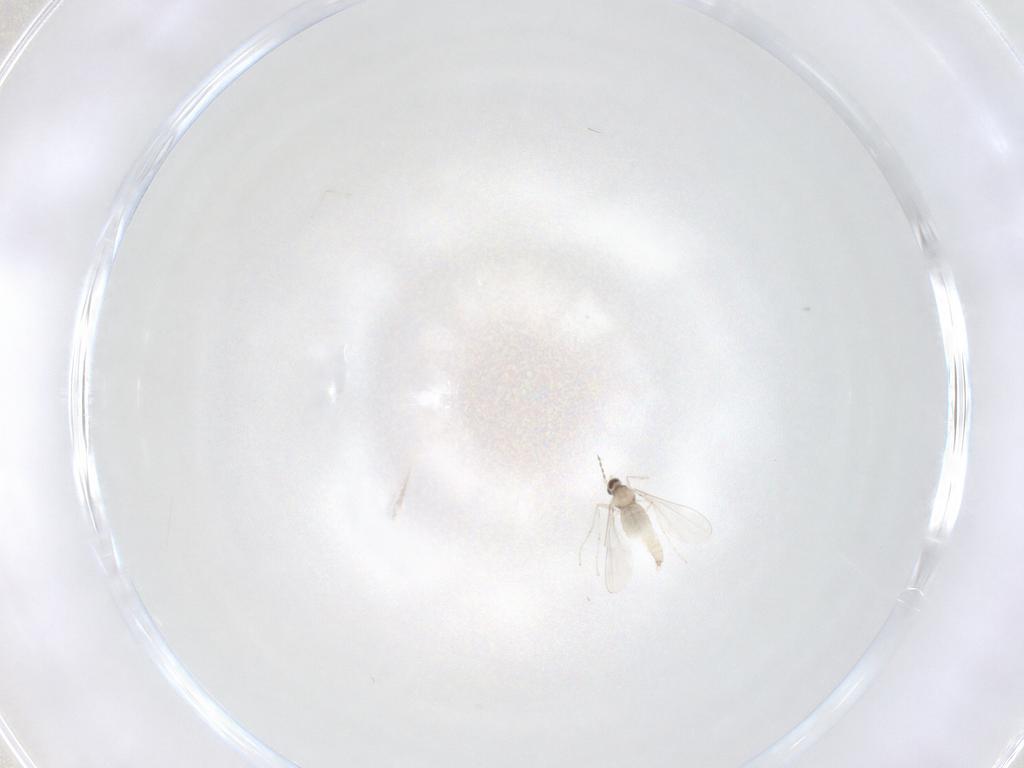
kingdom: Animalia
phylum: Arthropoda
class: Insecta
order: Diptera
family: Cecidomyiidae
